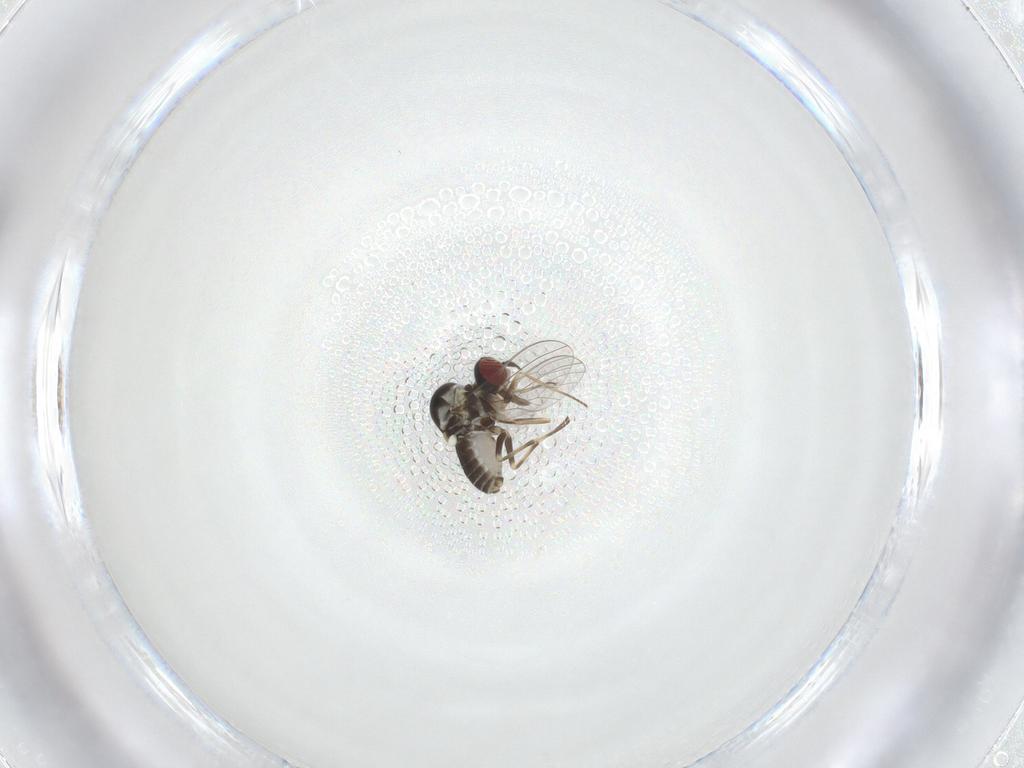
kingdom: Animalia
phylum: Arthropoda
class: Insecta
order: Diptera
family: Mythicomyiidae
